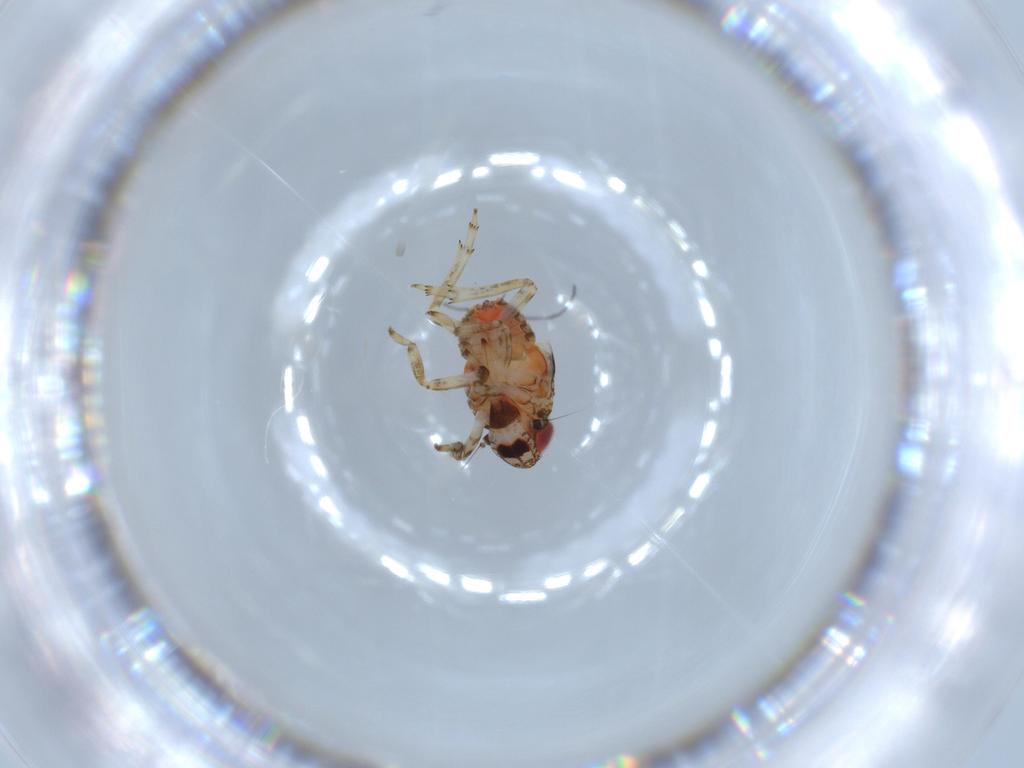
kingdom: Animalia
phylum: Arthropoda
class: Insecta
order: Hemiptera
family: Issidae
